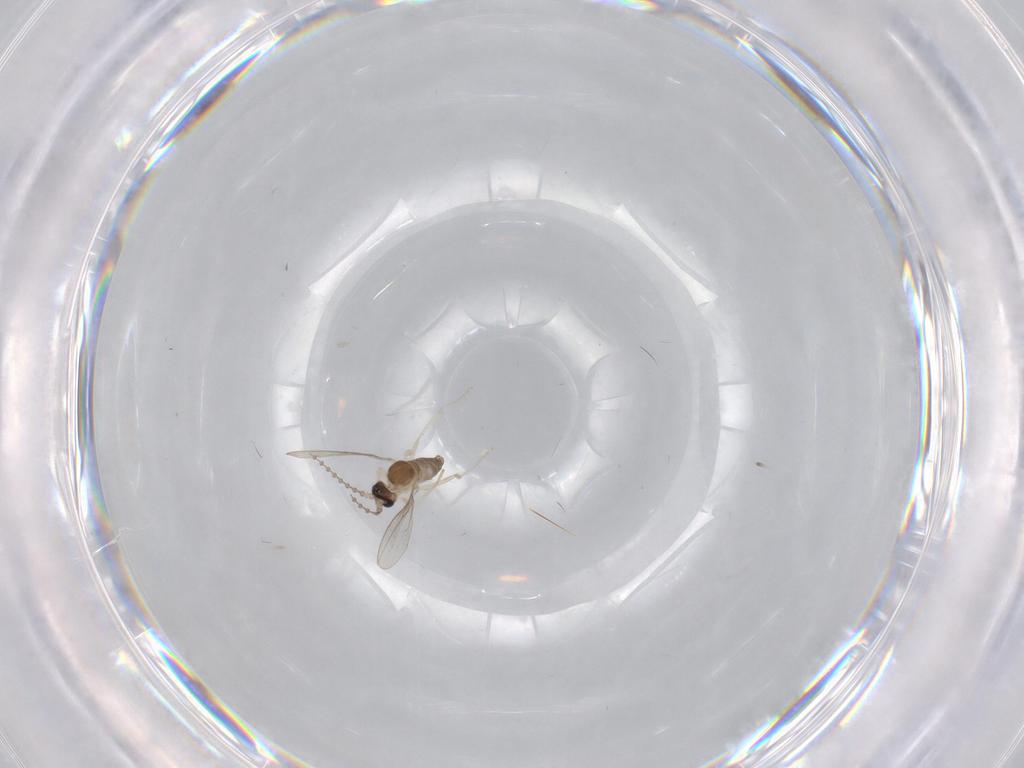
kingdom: Animalia
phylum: Arthropoda
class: Insecta
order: Diptera
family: Cecidomyiidae
